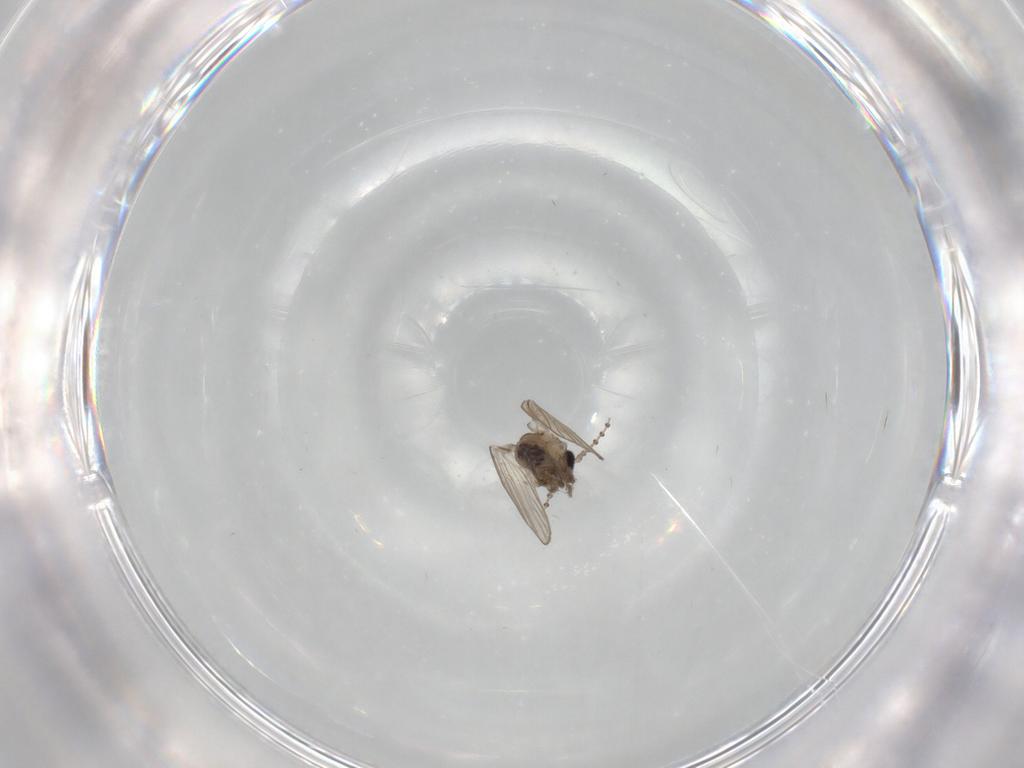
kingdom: Animalia
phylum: Arthropoda
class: Insecta
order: Diptera
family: Psychodidae
